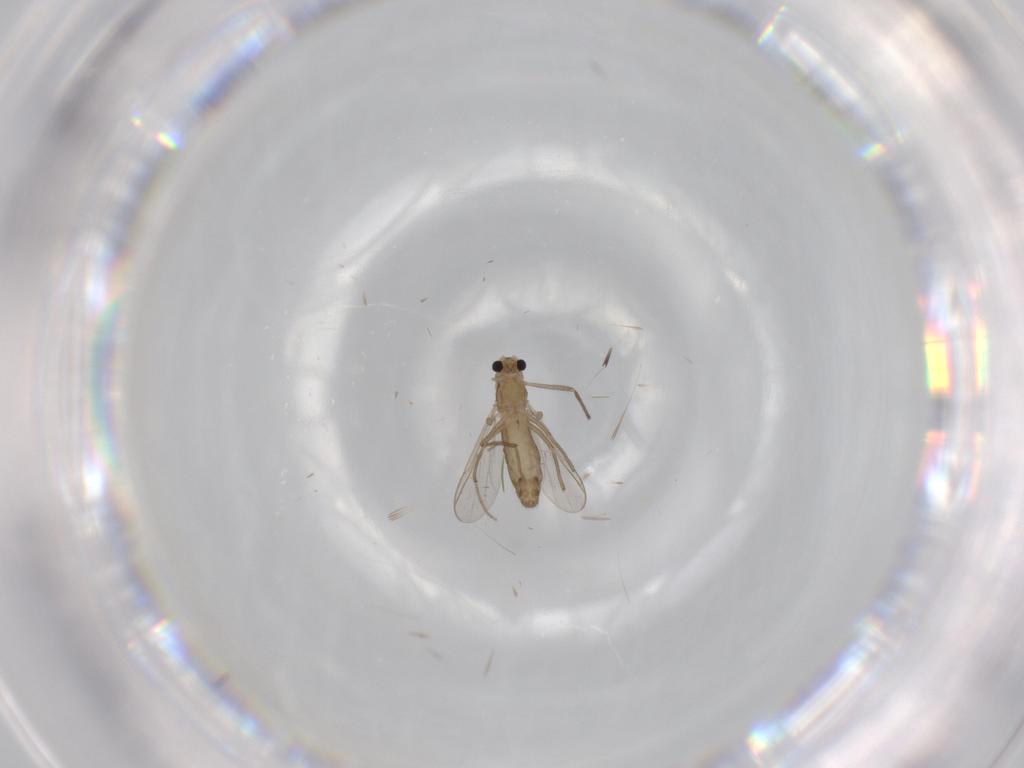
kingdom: Animalia
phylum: Arthropoda
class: Insecta
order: Diptera
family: Chironomidae
